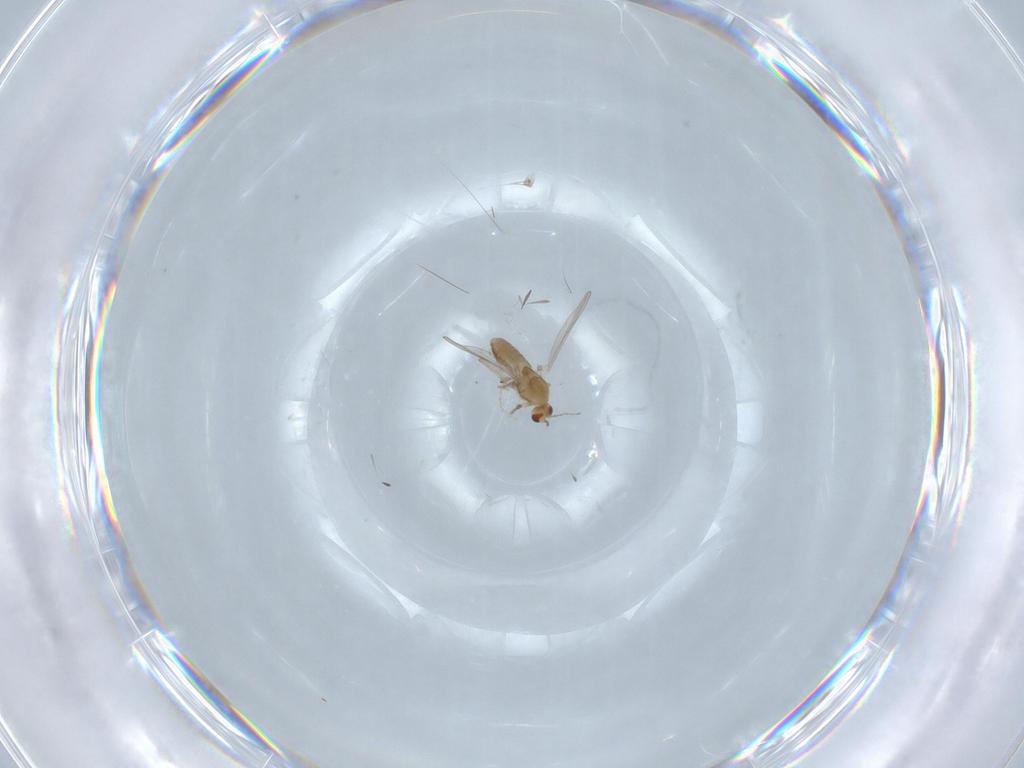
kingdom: Animalia
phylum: Arthropoda
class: Insecta
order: Diptera
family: Chironomidae
